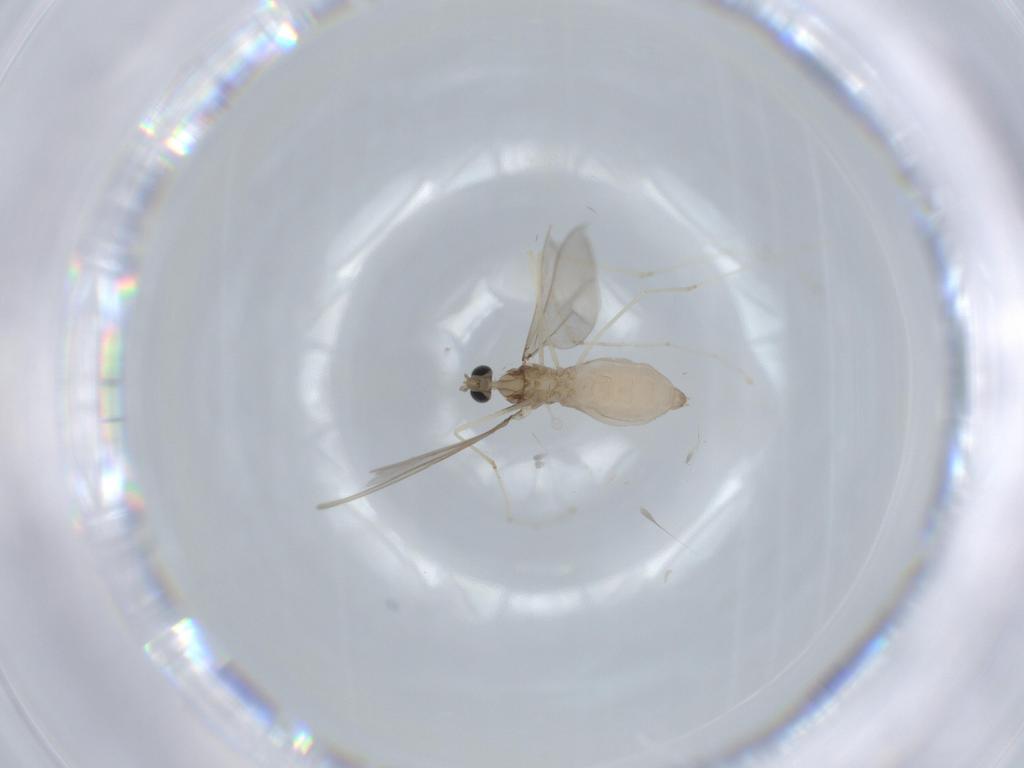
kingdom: Animalia
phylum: Arthropoda
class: Insecta
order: Diptera
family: Cecidomyiidae
